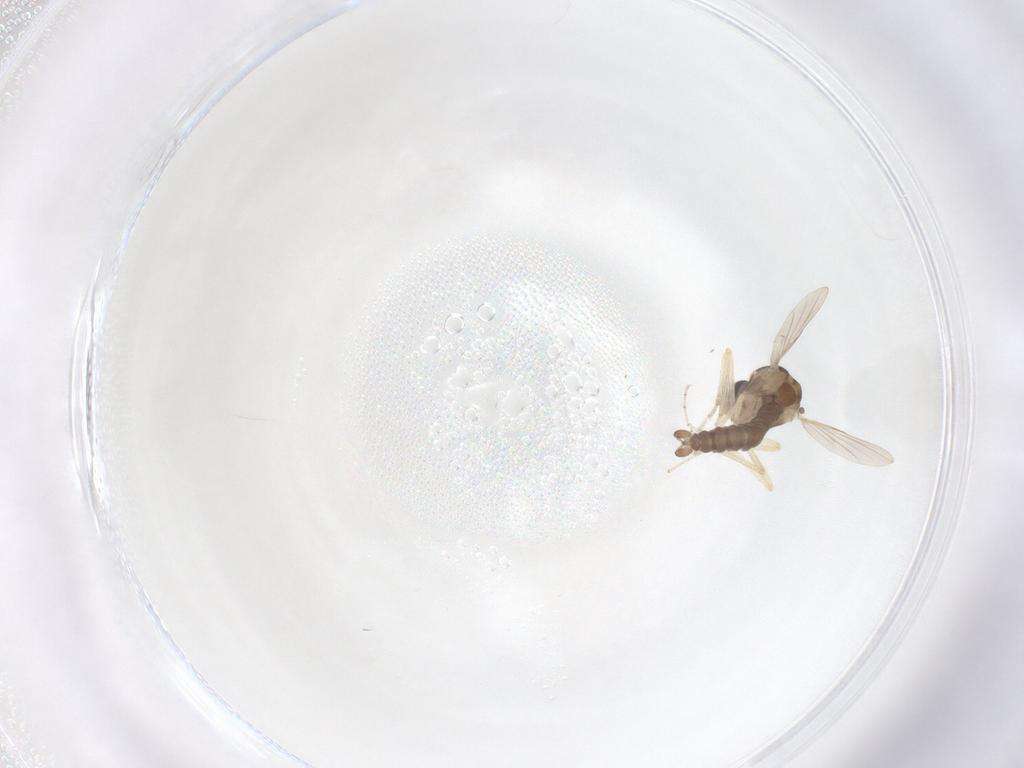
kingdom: Animalia
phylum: Arthropoda
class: Insecta
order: Diptera
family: Ceratopogonidae
